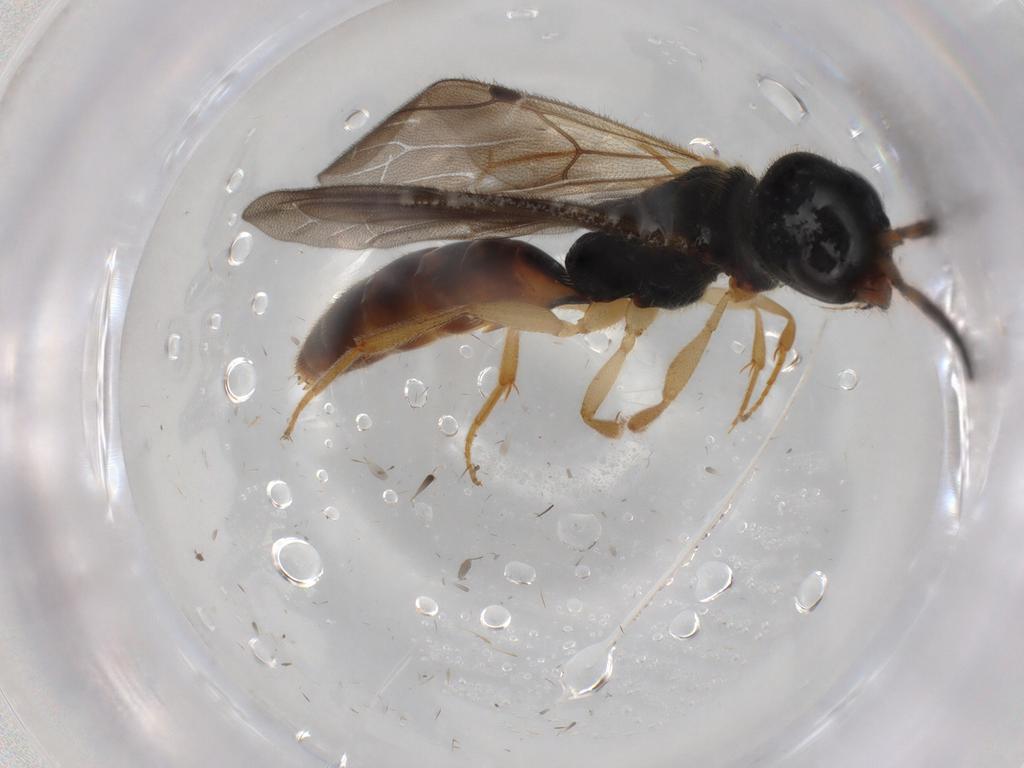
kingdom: Animalia
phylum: Arthropoda
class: Insecta
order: Hymenoptera
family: Bethylidae
